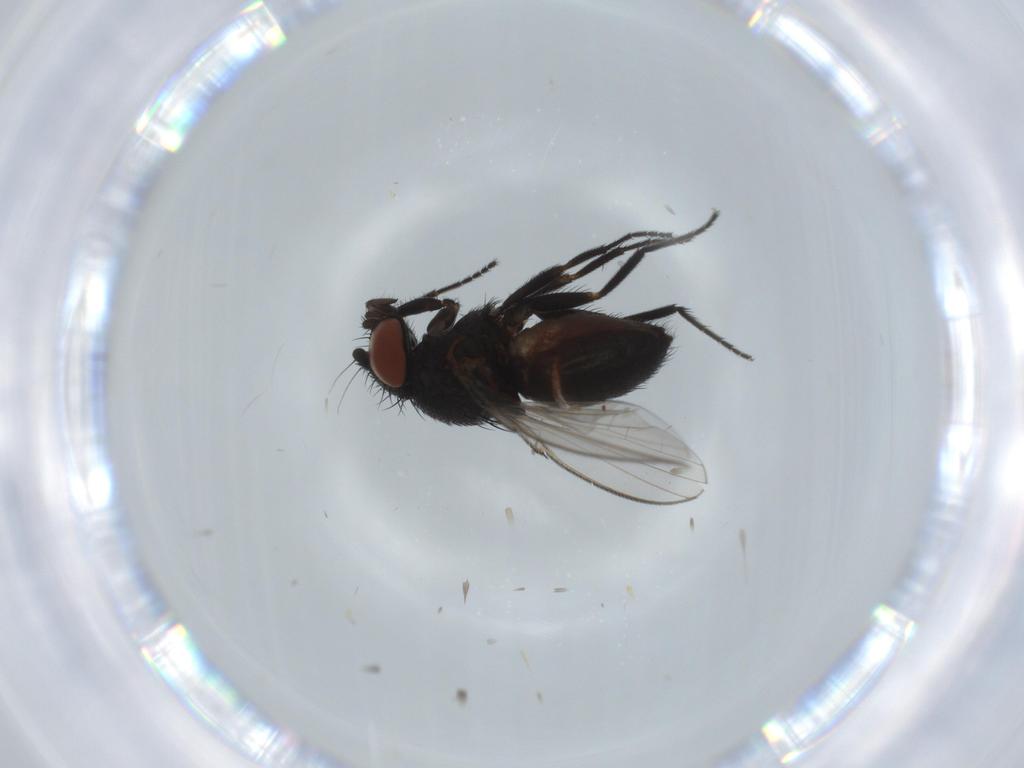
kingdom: Animalia
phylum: Arthropoda
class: Insecta
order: Diptera
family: Milichiidae
